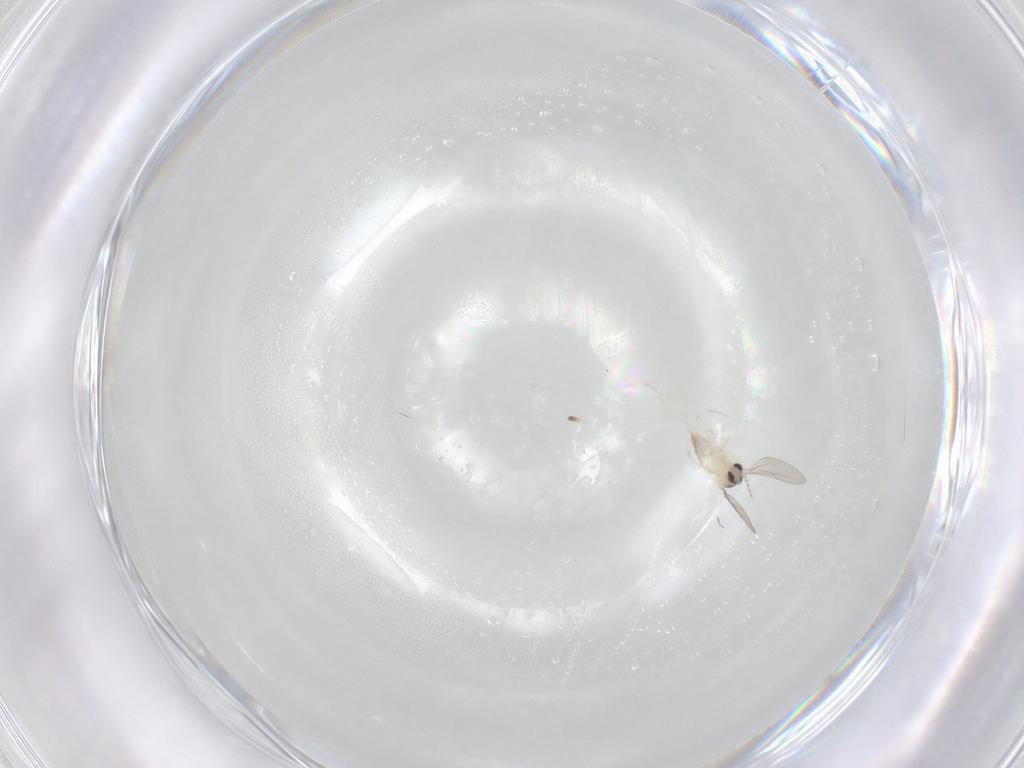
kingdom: Animalia
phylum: Arthropoda
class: Insecta
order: Diptera
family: Cecidomyiidae
